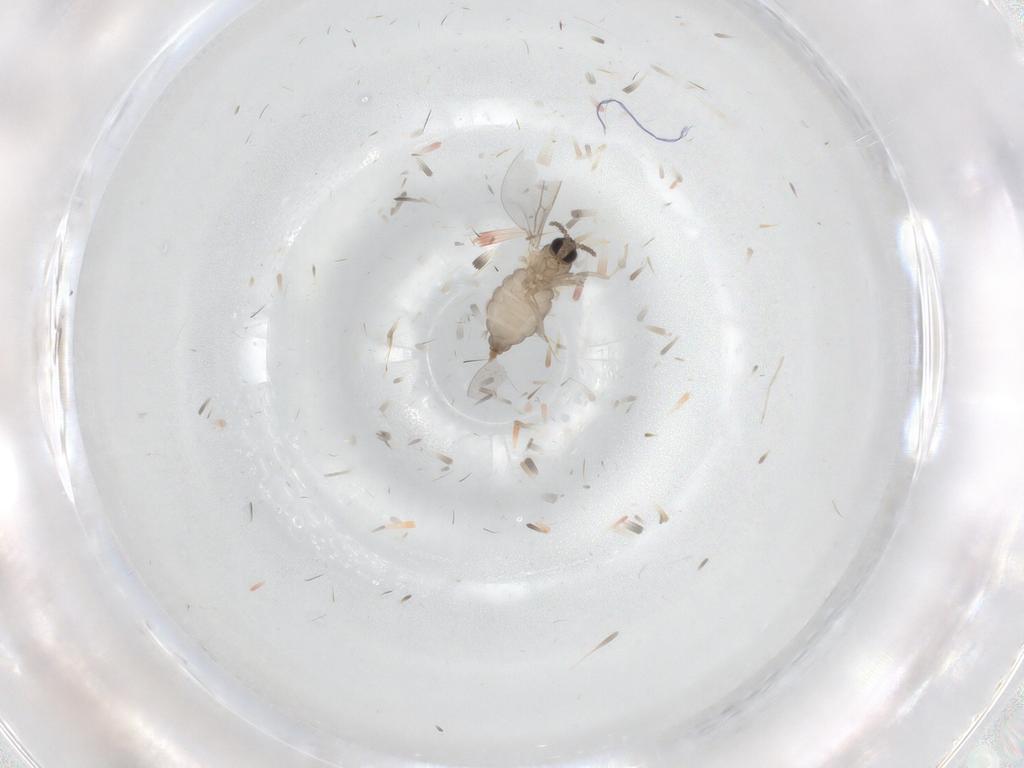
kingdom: Animalia
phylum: Arthropoda
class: Insecta
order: Diptera
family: Cecidomyiidae
